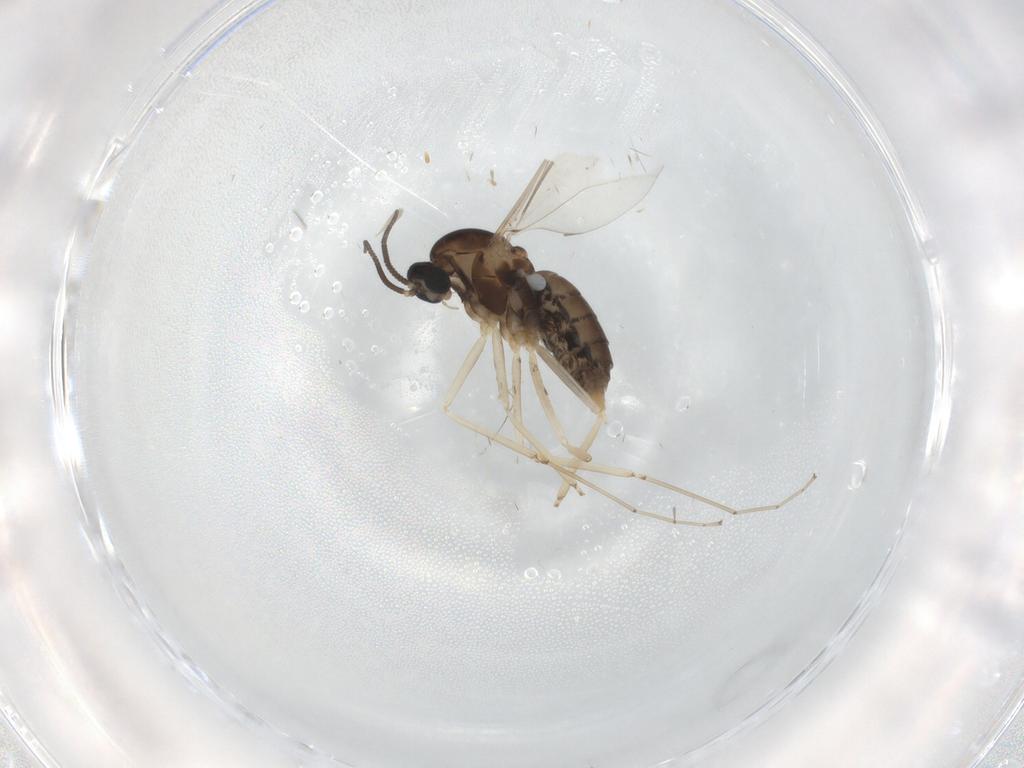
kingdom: Animalia
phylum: Arthropoda
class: Insecta
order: Diptera
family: Cecidomyiidae
